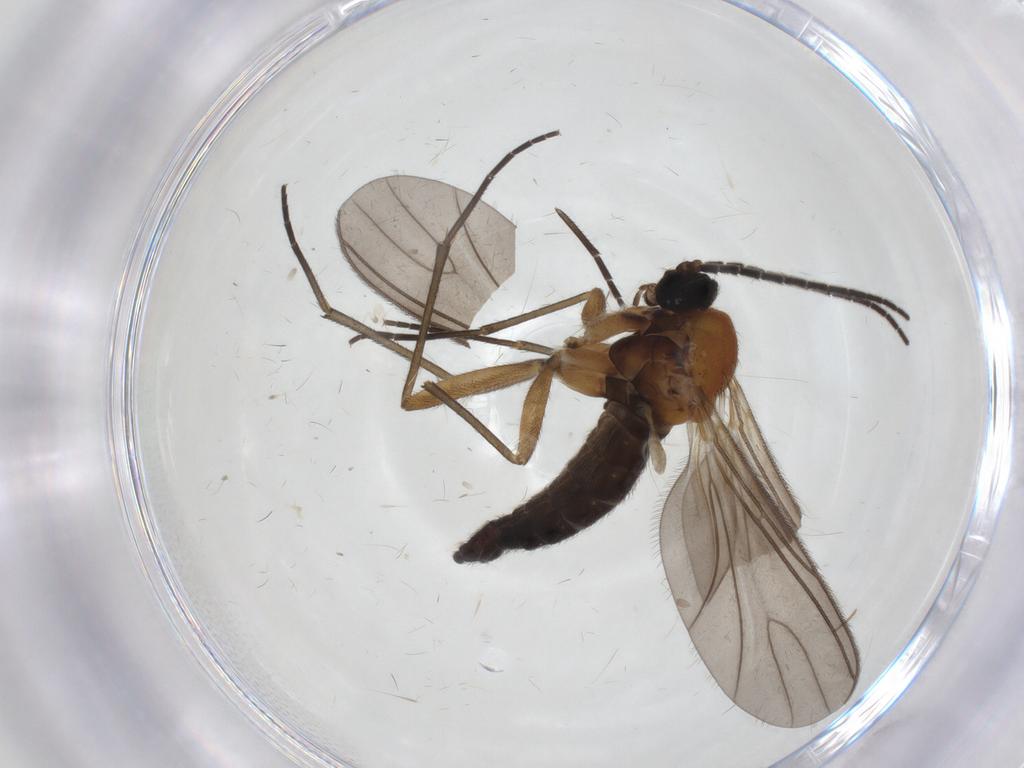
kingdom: Animalia
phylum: Arthropoda
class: Insecta
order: Diptera
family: Sciaridae
